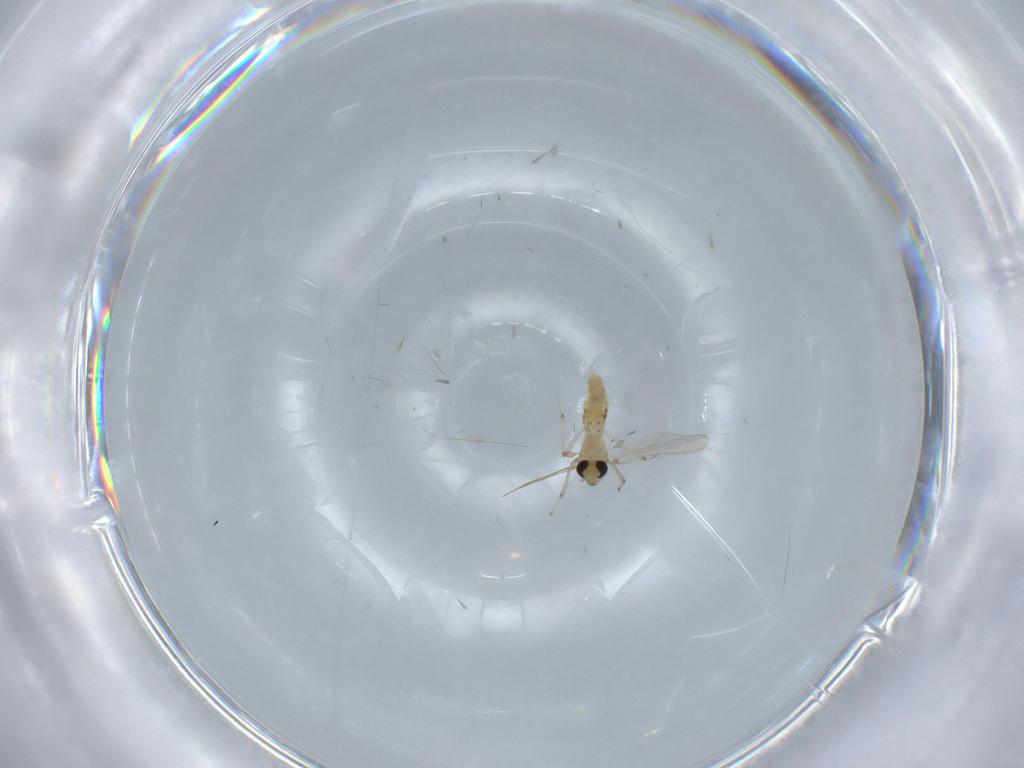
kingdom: Animalia
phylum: Arthropoda
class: Insecta
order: Diptera
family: Chironomidae
